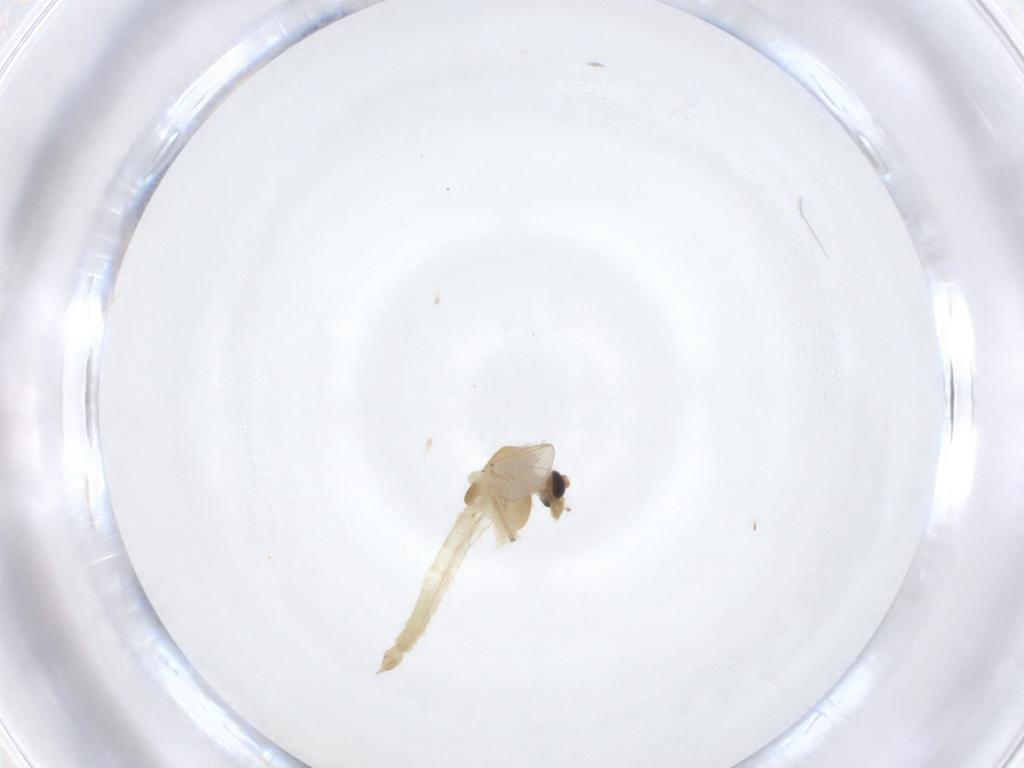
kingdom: Animalia
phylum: Arthropoda
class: Insecta
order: Diptera
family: Chironomidae
